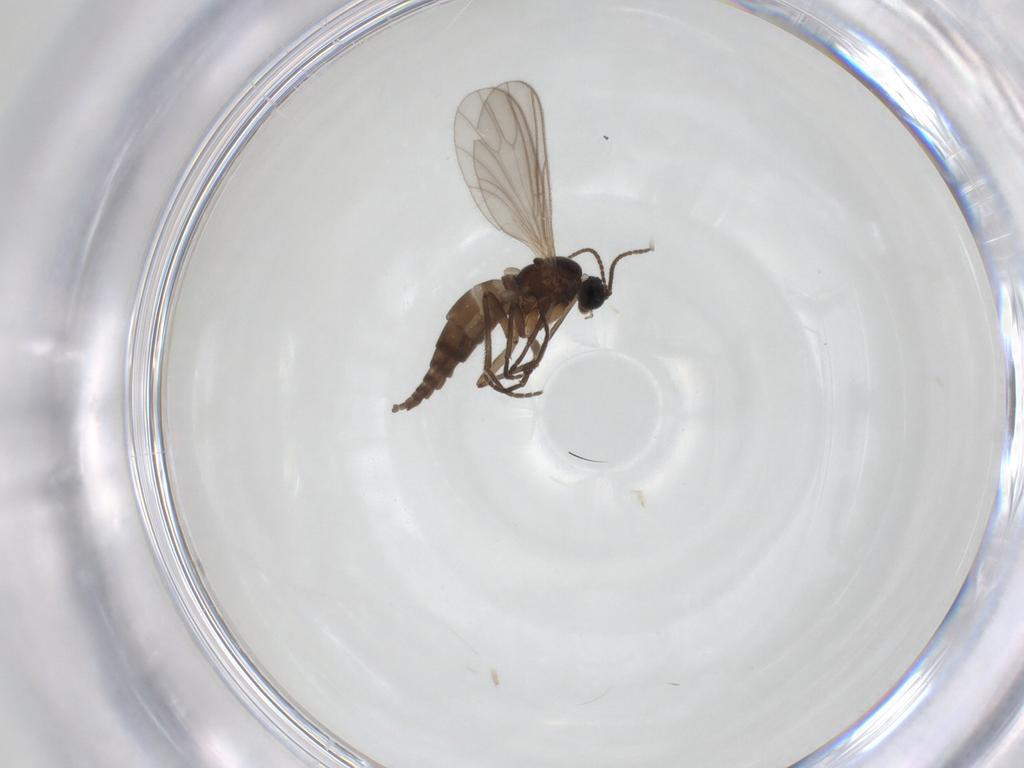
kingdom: Animalia
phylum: Arthropoda
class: Insecta
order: Diptera
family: Sciaridae
